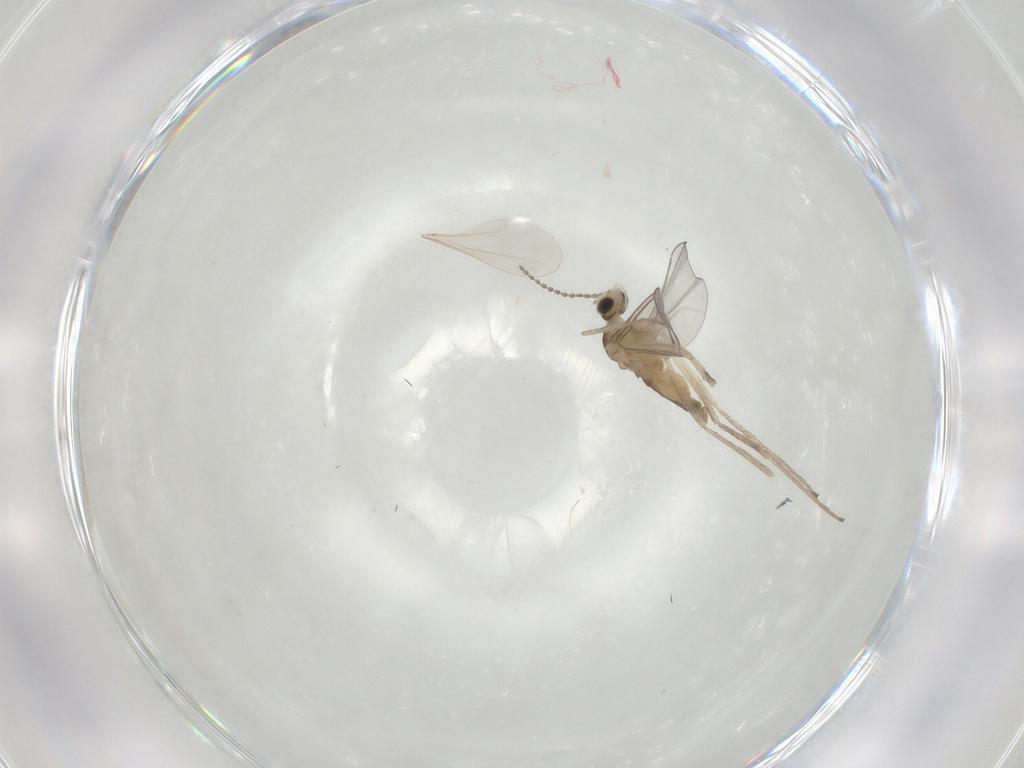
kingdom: Animalia
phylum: Arthropoda
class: Insecta
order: Diptera
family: Cecidomyiidae
